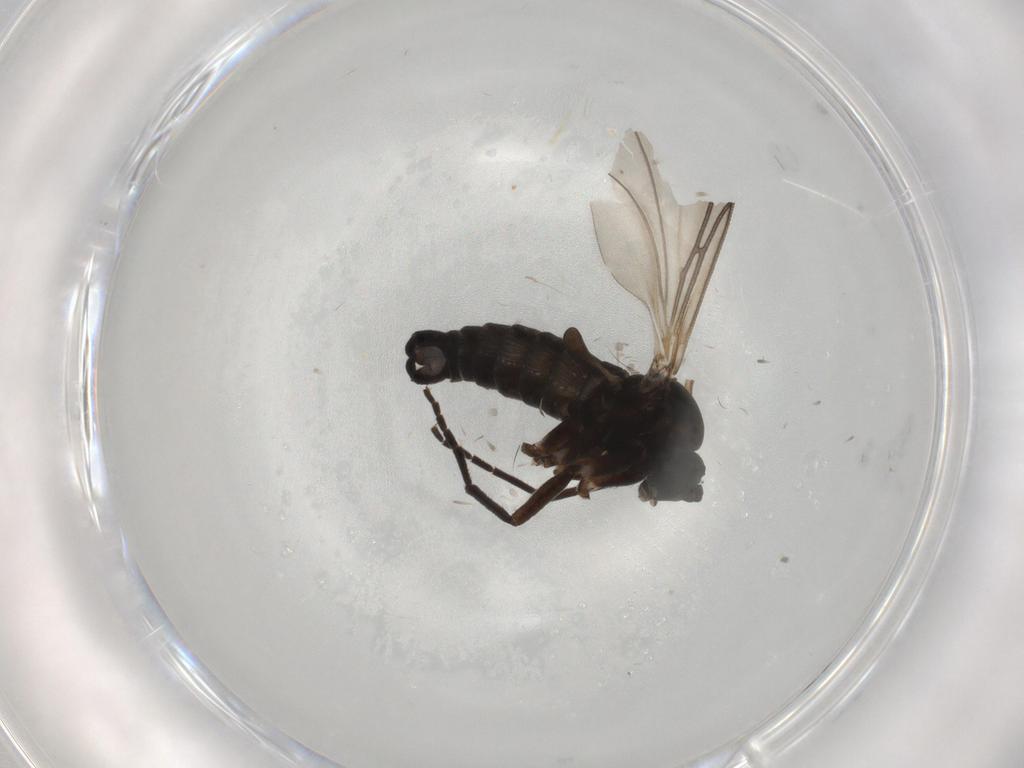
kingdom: Animalia
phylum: Arthropoda
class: Insecta
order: Diptera
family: Sciaridae
